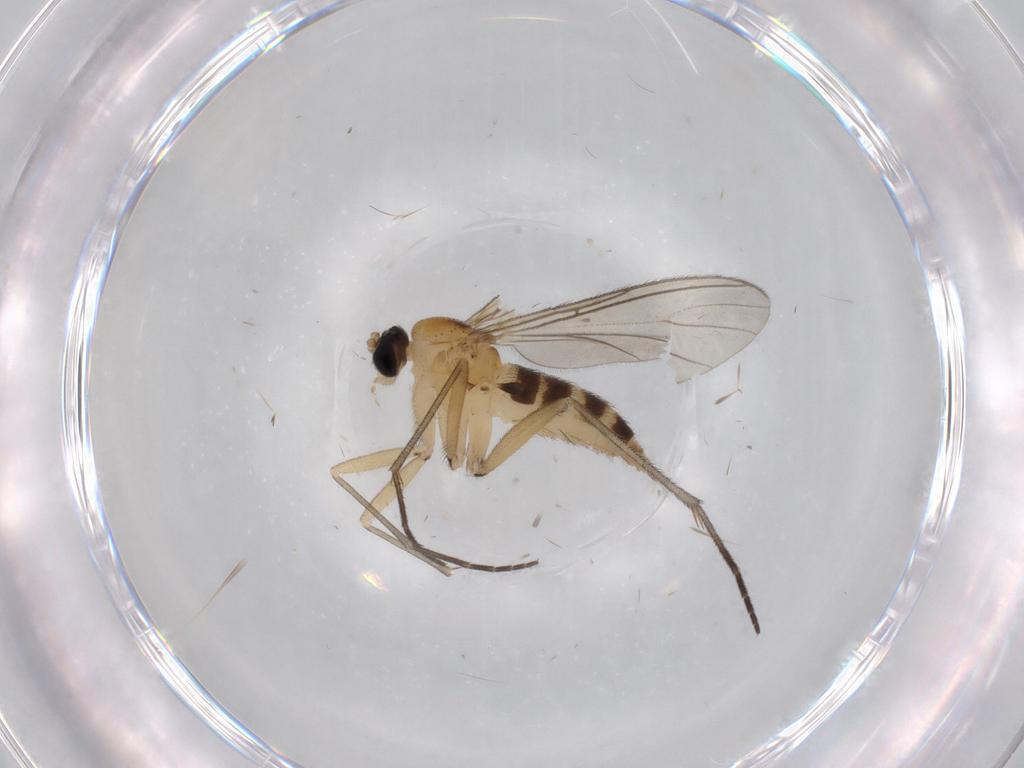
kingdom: Animalia
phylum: Arthropoda
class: Insecta
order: Diptera
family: Sciaridae
